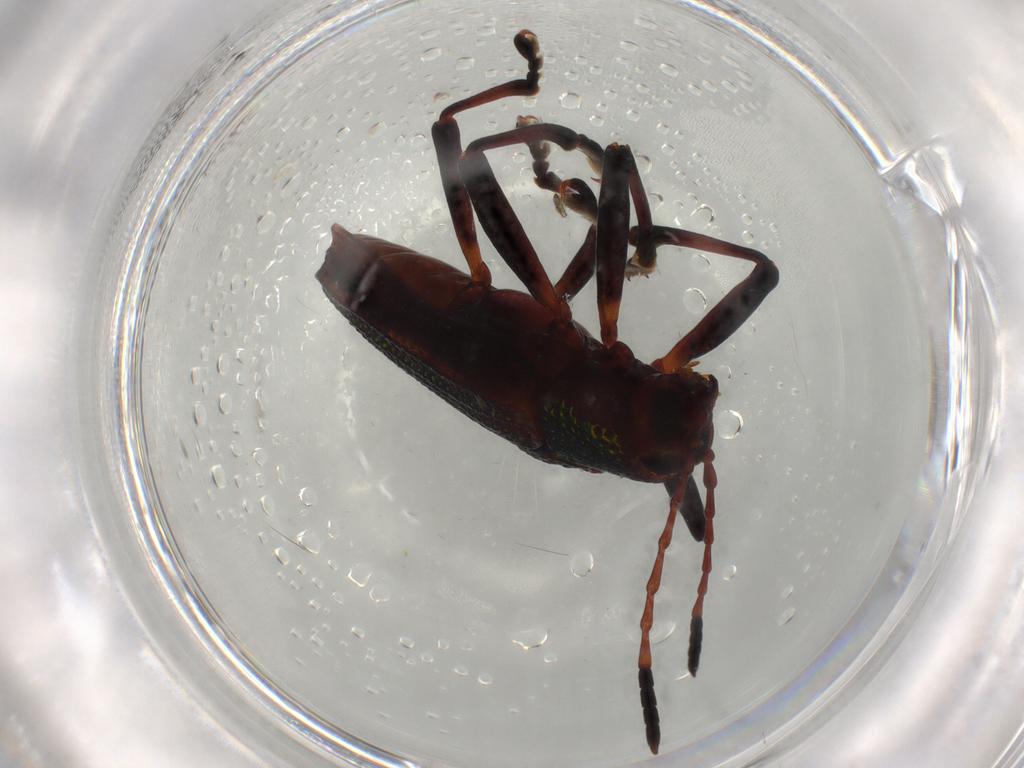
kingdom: Animalia
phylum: Arthropoda
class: Insecta
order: Coleoptera
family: Chrysomelidae
